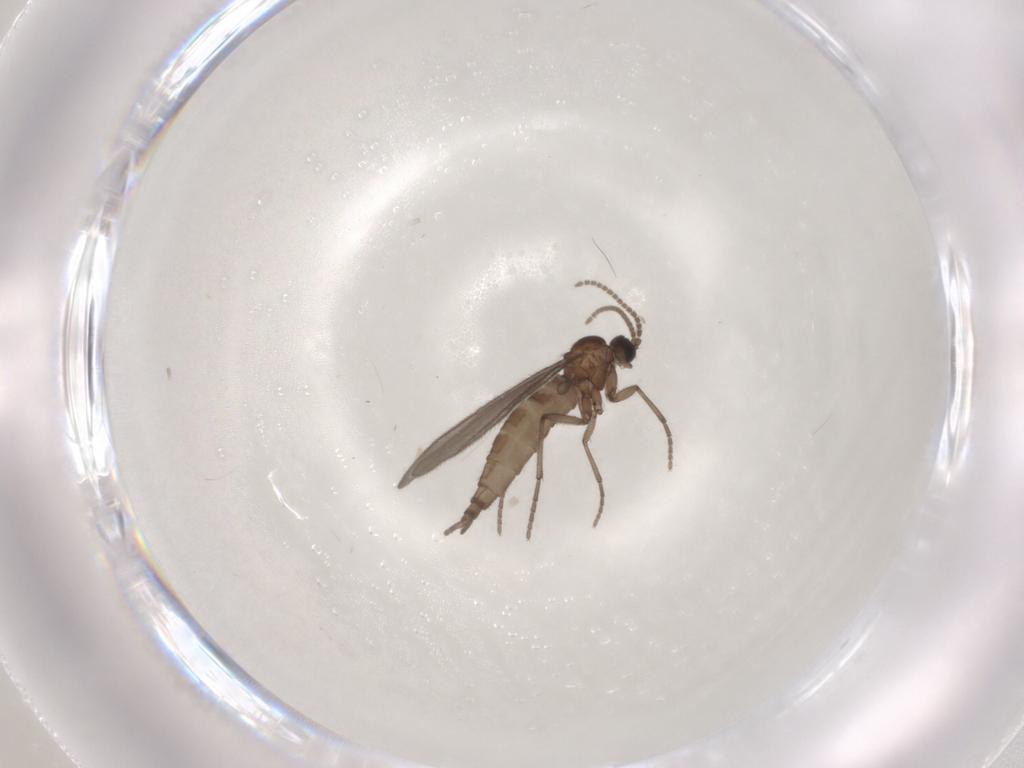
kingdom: Animalia
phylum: Arthropoda
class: Insecta
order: Diptera
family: Sciaridae
